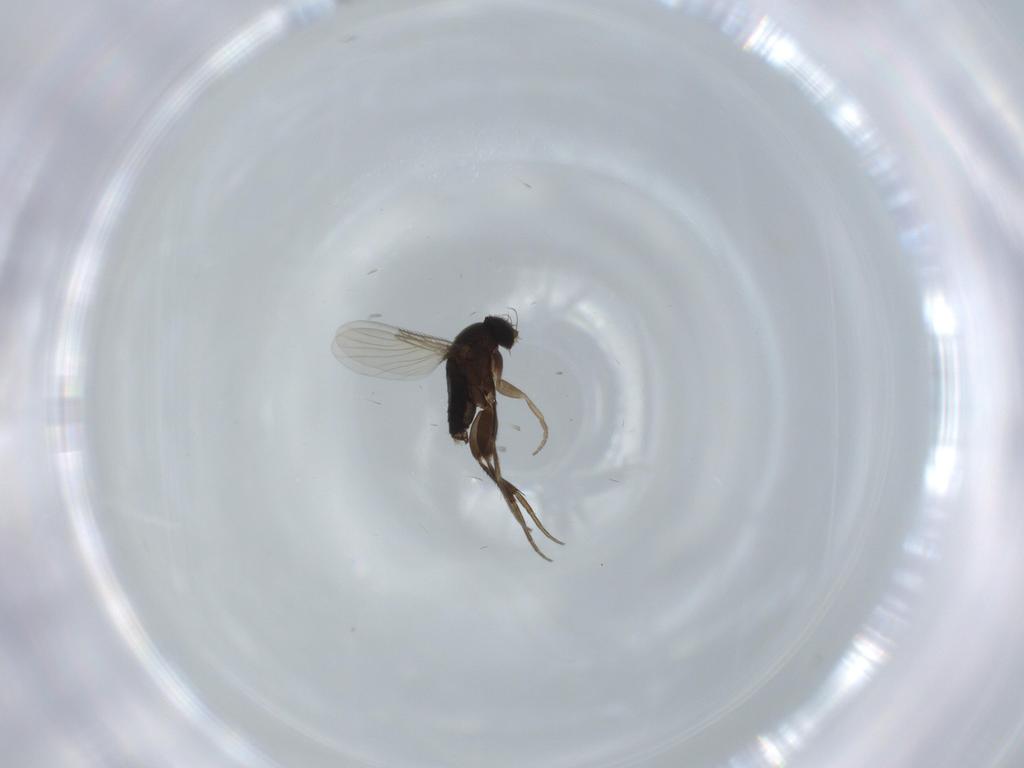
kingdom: Animalia
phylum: Arthropoda
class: Insecta
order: Diptera
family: Phoridae
